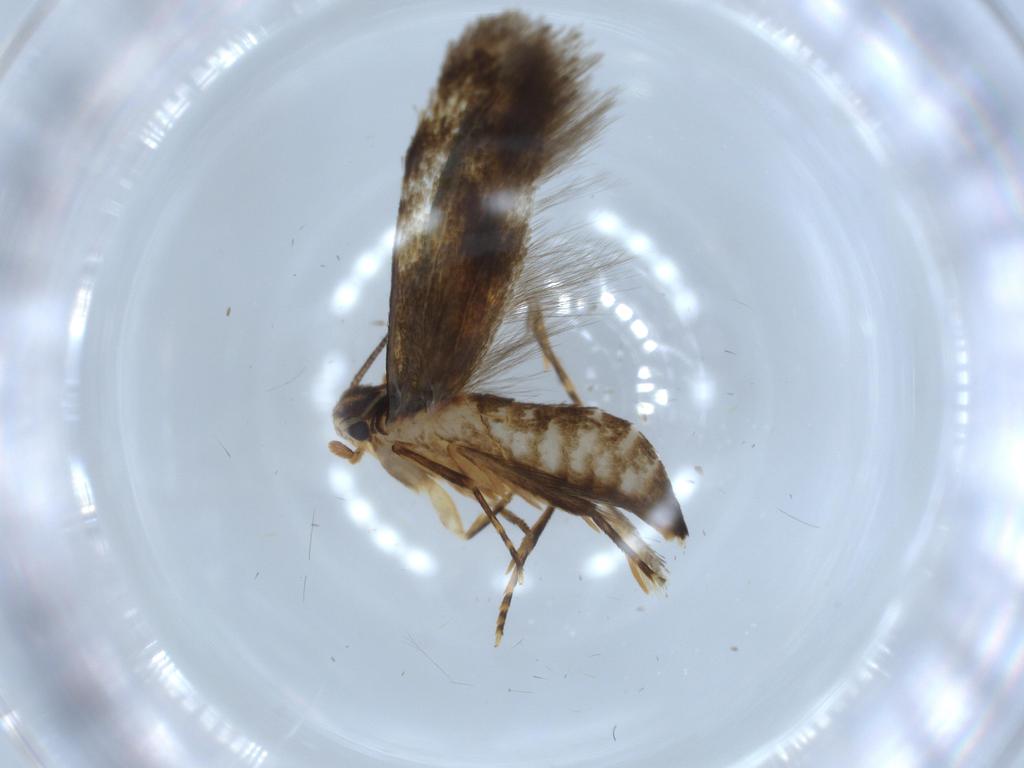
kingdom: Animalia
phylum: Arthropoda
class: Insecta
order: Lepidoptera
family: Tineidae
